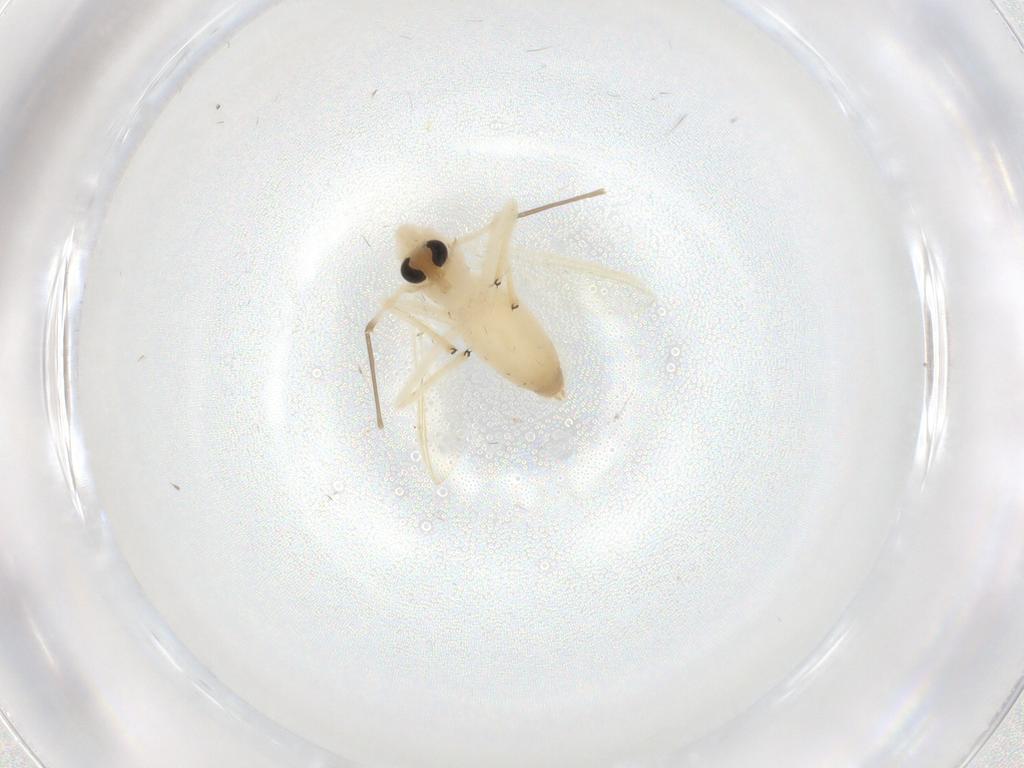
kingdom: Animalia
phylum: Arthropoda
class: Insecta
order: Diptera
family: Chironomidae
